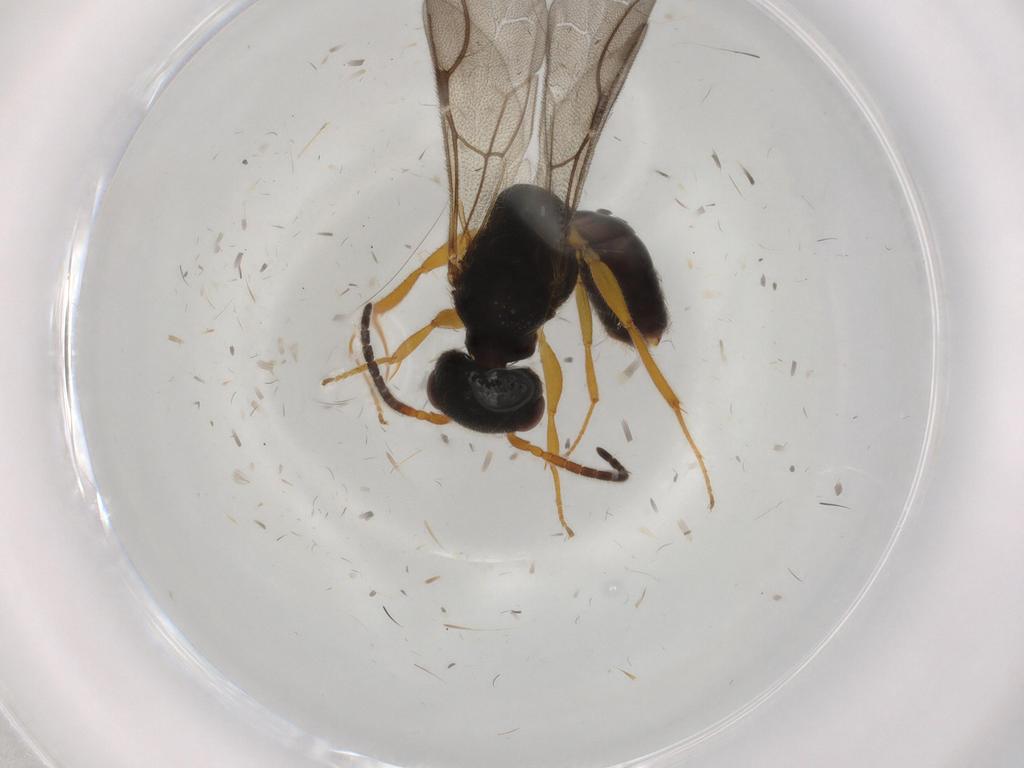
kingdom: Animalia
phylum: Arthropoda
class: Insecta
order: Hymenoptera
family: Bethylidae
